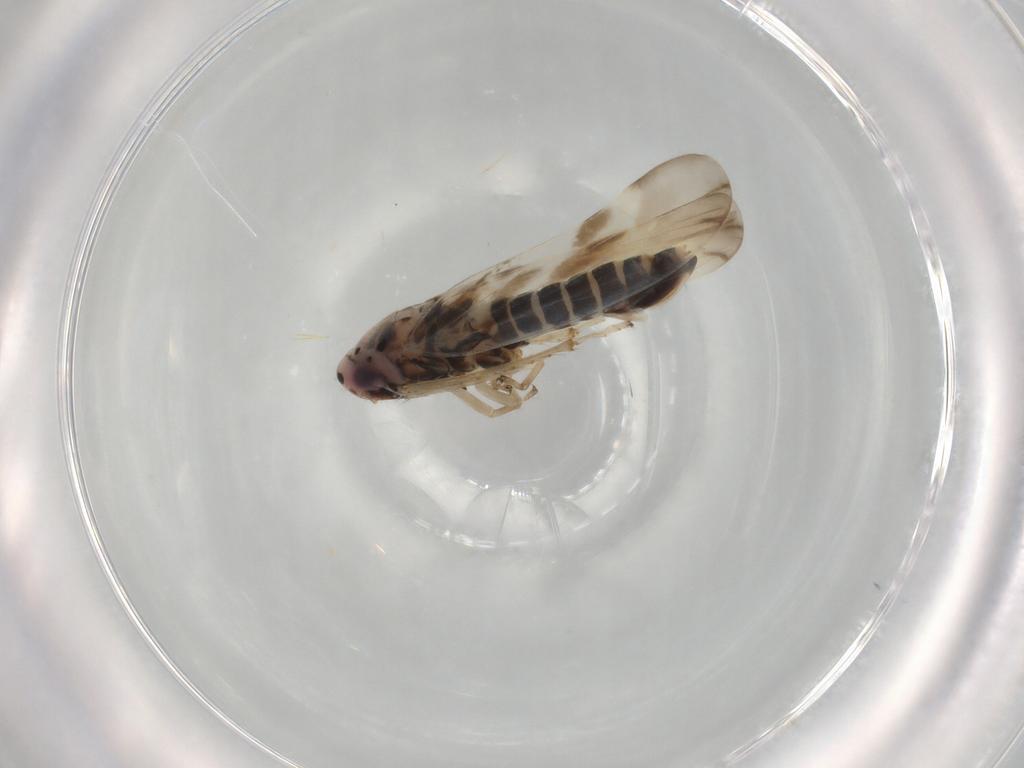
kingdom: Animalia
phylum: Arthropoda
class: Insecta
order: Hemiptera
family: Cicadellidae
